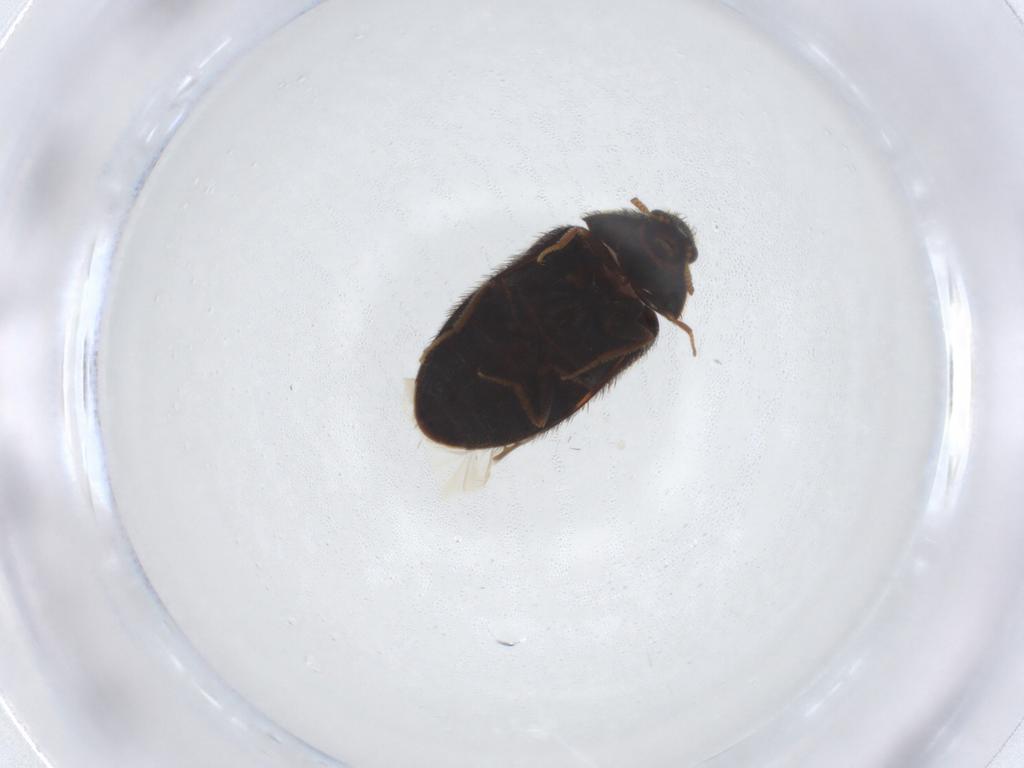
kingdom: Animalia
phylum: Arthropoda
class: Insecta
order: Coleoptera
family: Dermestidae
